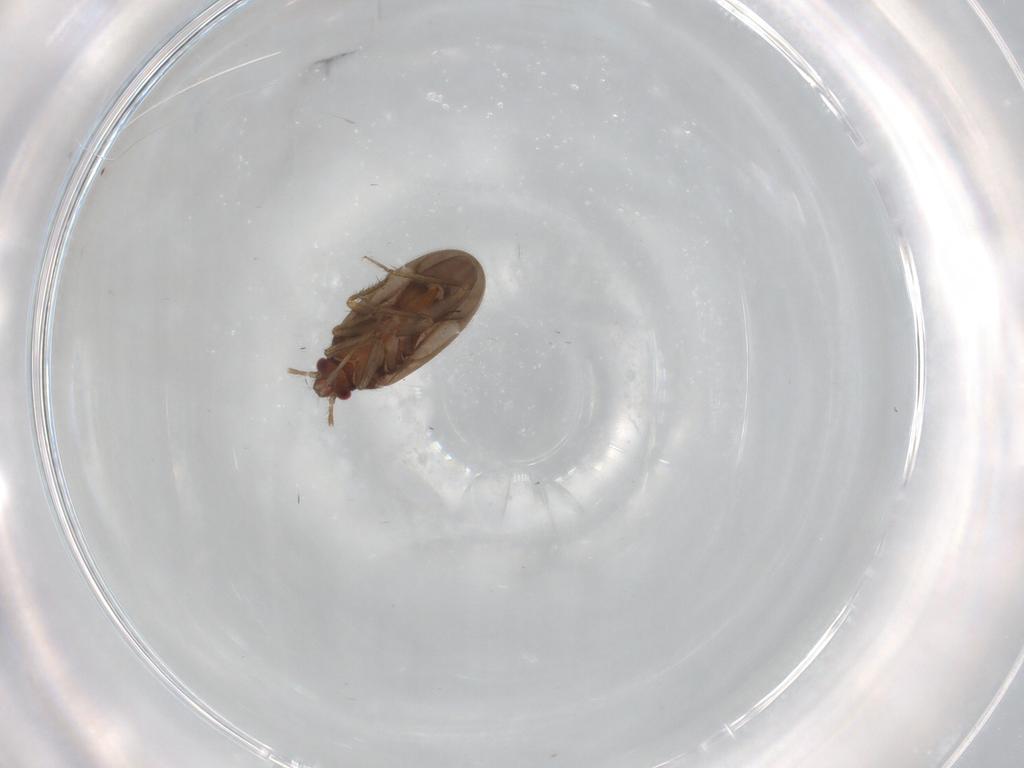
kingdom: Animalia
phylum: Arthropoda
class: Insecta
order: Hemiptera
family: Ceratocombidae
